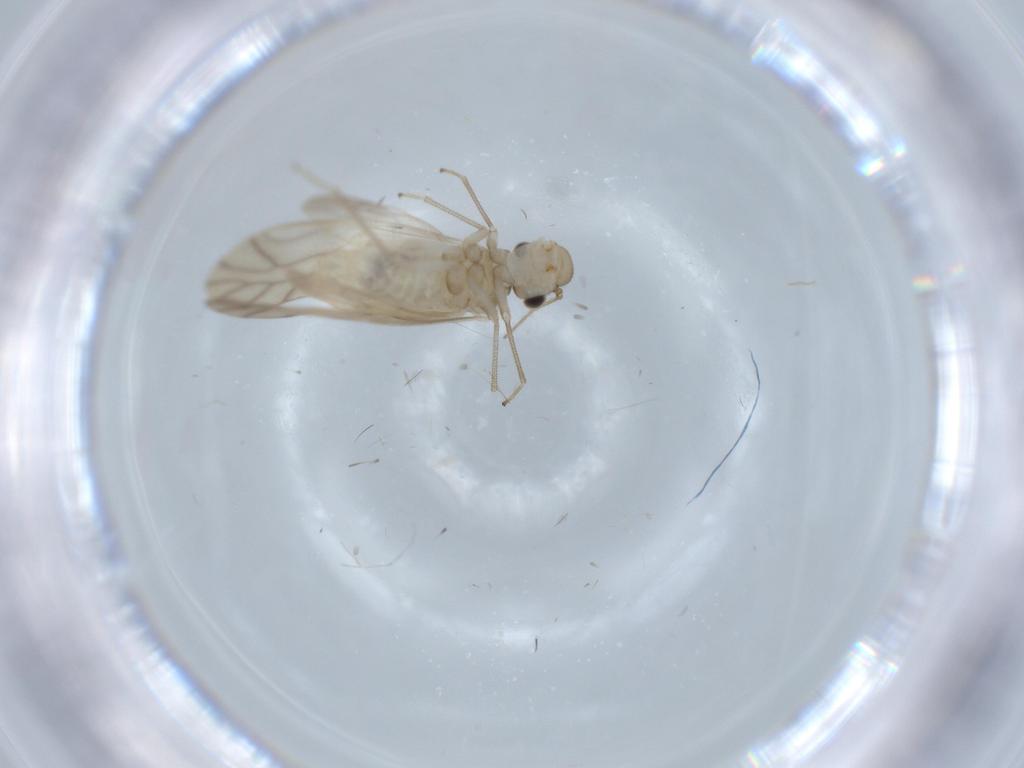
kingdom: Animalia
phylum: Arthropoda
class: Insecta
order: Psocodea
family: Caeciliusidae
